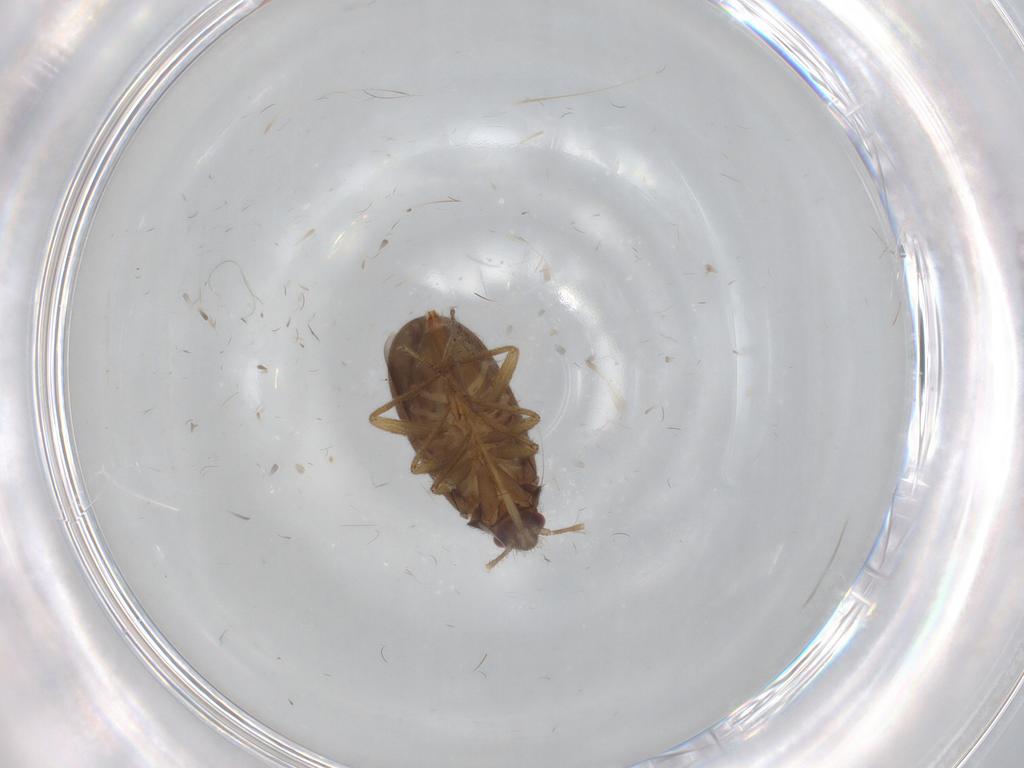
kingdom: Animalia
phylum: Arthropoda
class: Insecta
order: Hemiptera
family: Ceratocombidae
